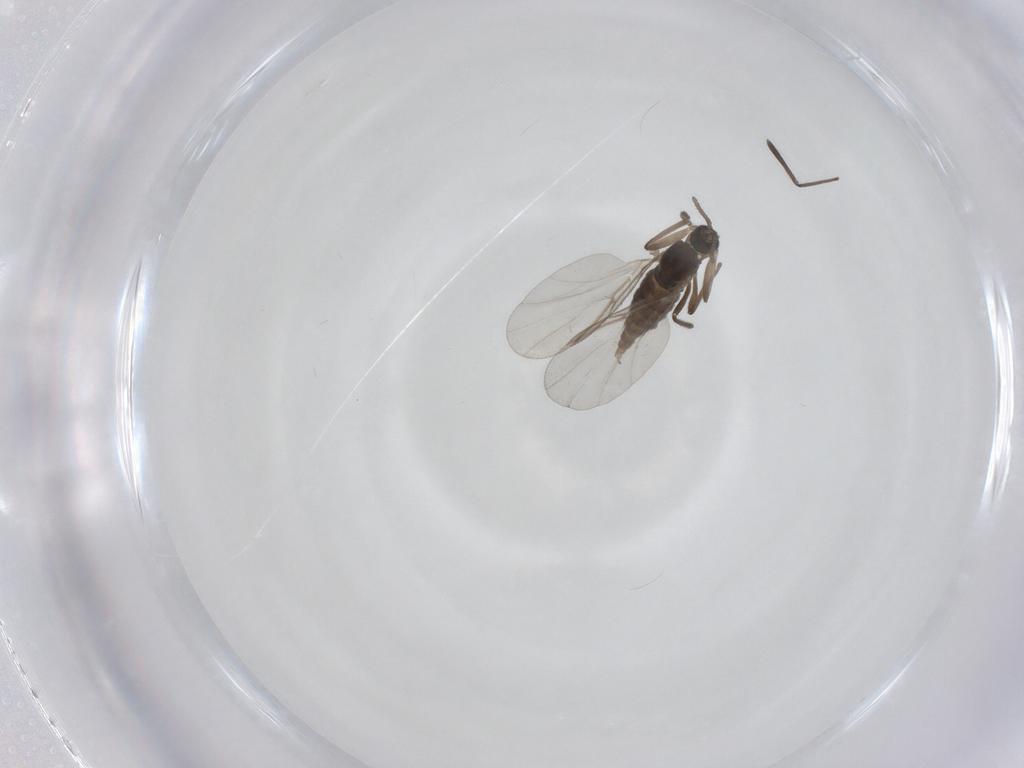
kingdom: Animalia
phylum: Arthropoda
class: Insecta
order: Diptera
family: Cecidomyiidae
